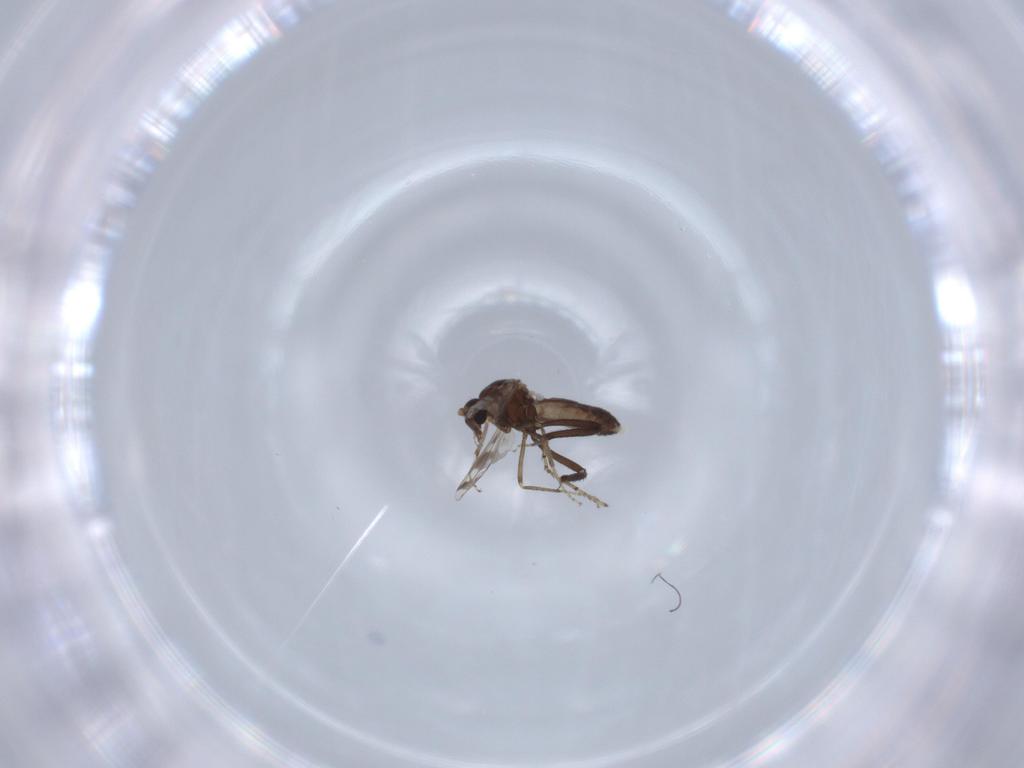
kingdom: Animalia
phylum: Arthropoda
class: Insecta
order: Diptera
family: Ceratopogonidae
